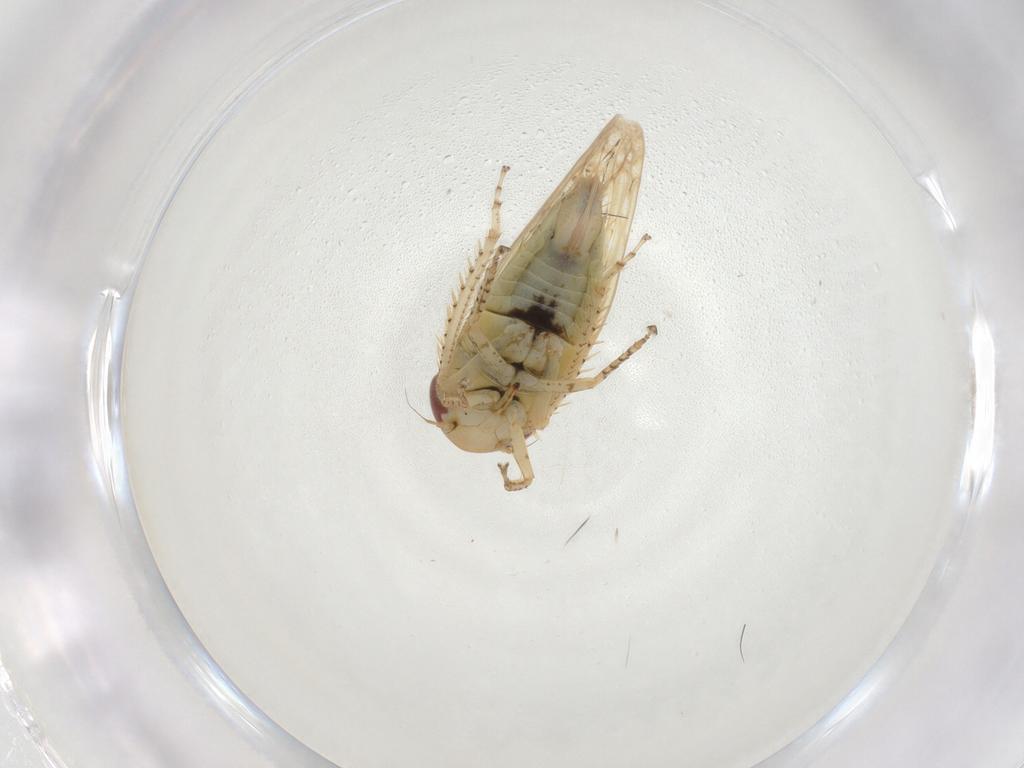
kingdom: Animalia
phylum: Arthropoda
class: Insecta
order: Hemiptera
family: Cicadellidae
